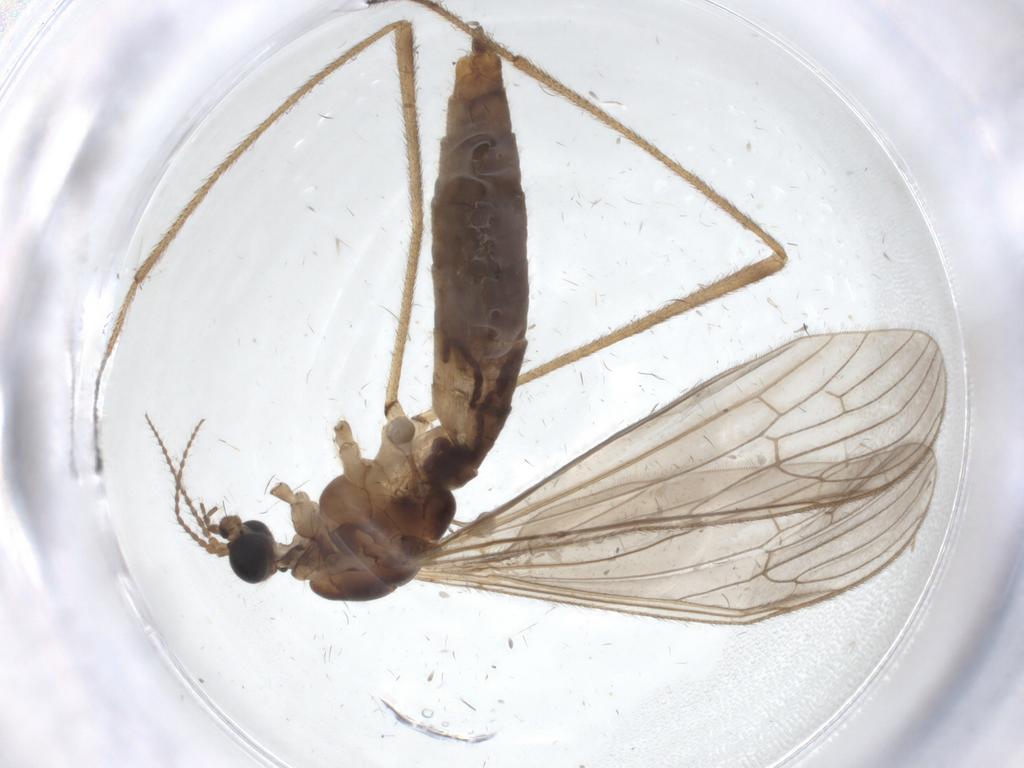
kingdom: Animalia
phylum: Arthropoda
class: Insecta
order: Diptera
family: Limoniidae
